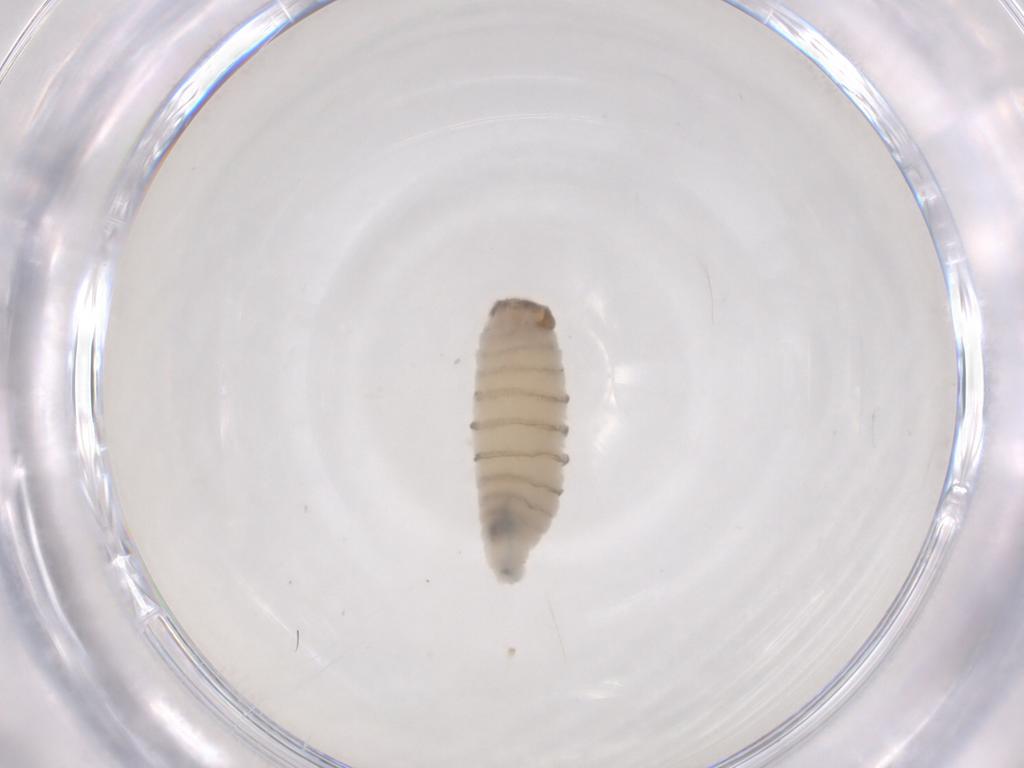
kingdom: Animalia
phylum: Arthropoda
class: Insecta
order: Diptera
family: Sarcophagidae
